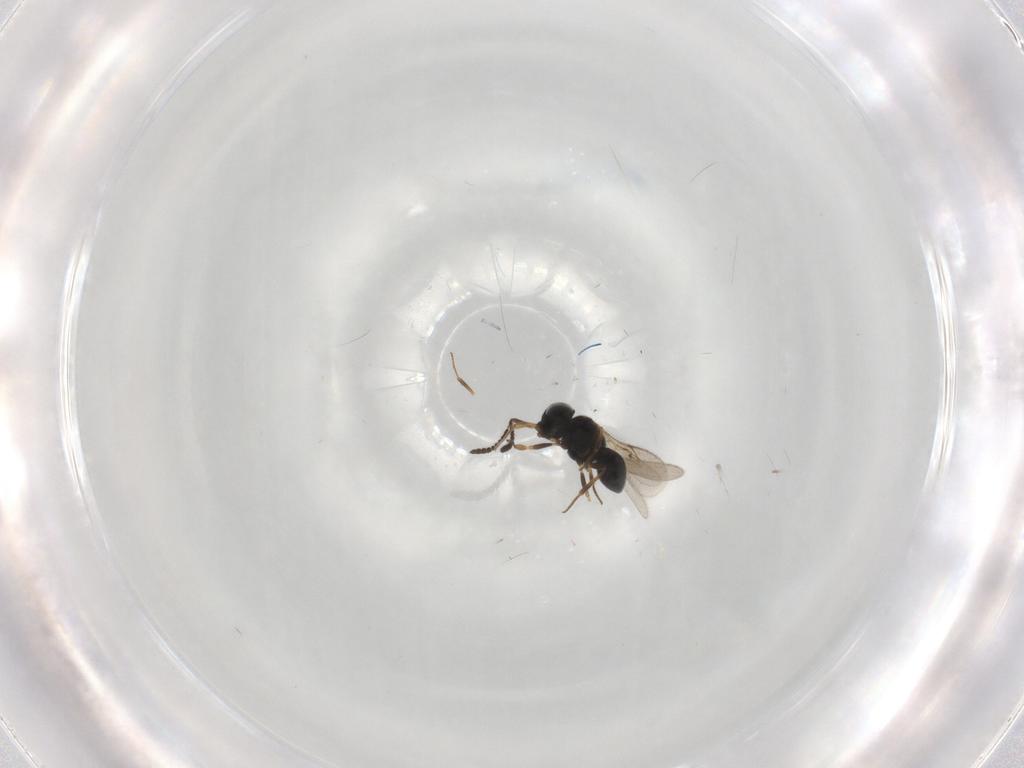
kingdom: Animalia
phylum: Arthropoda
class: Insecta
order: Hymenoptera
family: Scelionidae
